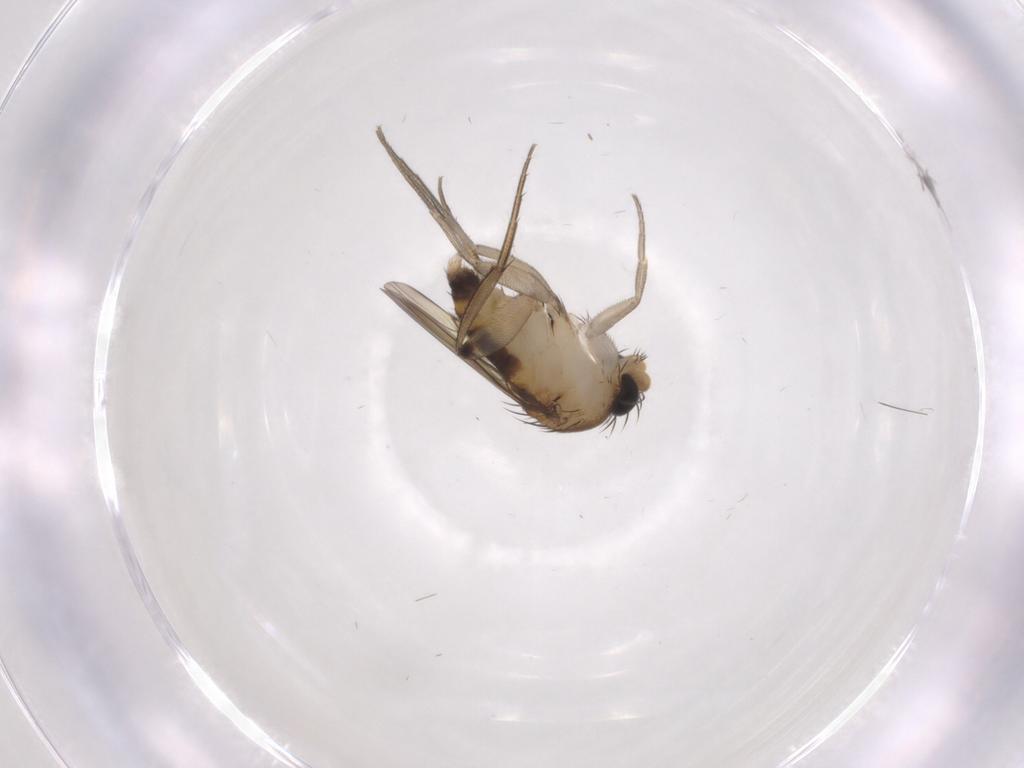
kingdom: Animalia
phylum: Arthropoda
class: Insecta
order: Diptera
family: Phoridae
